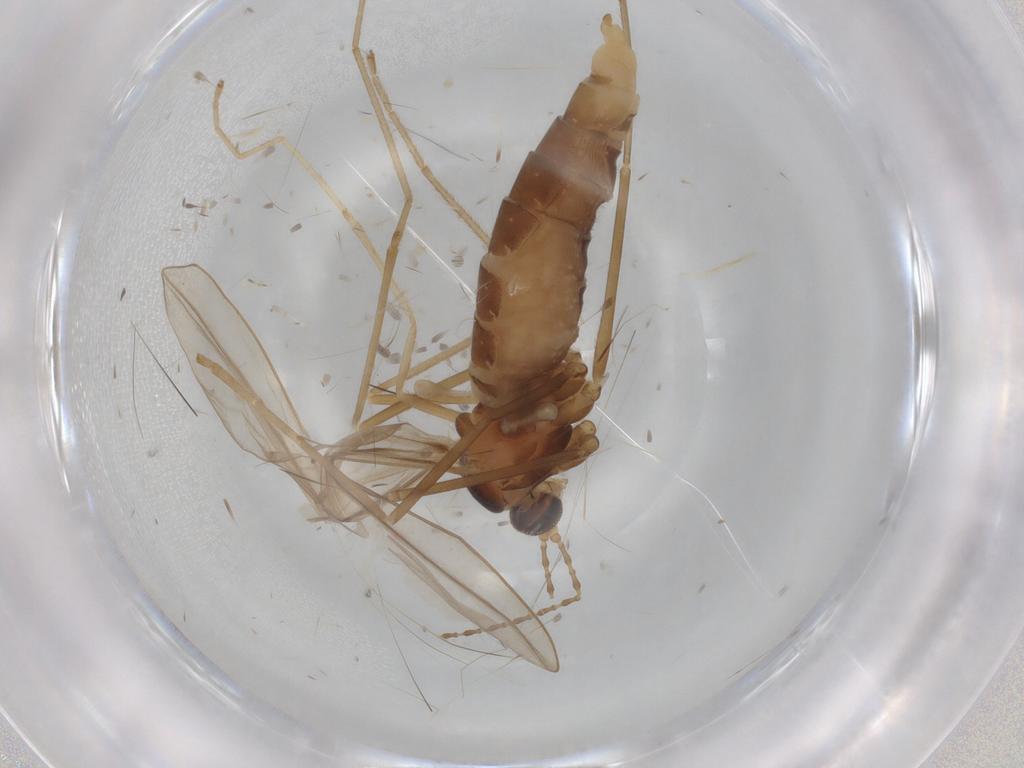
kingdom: Animalia
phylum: Arthropoda
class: Insecta
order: Diptera
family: Cecidomyiidae
